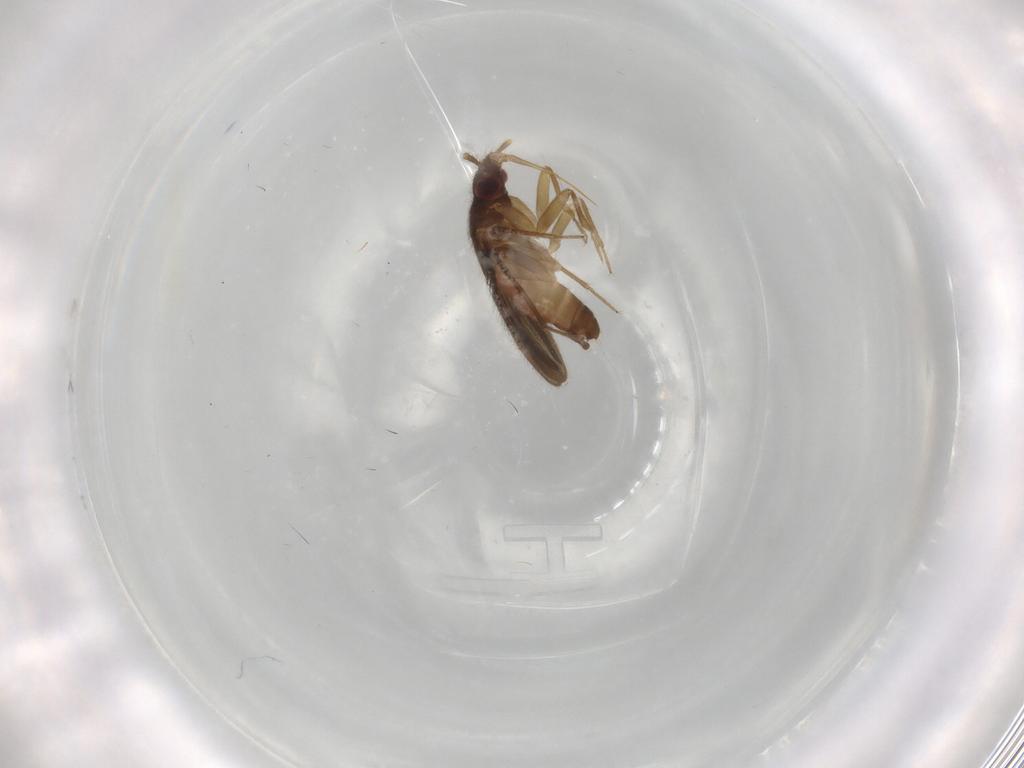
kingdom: Animalia
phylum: Arthropoda
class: Insecta
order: Hemiptera
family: Ceratocombidae
